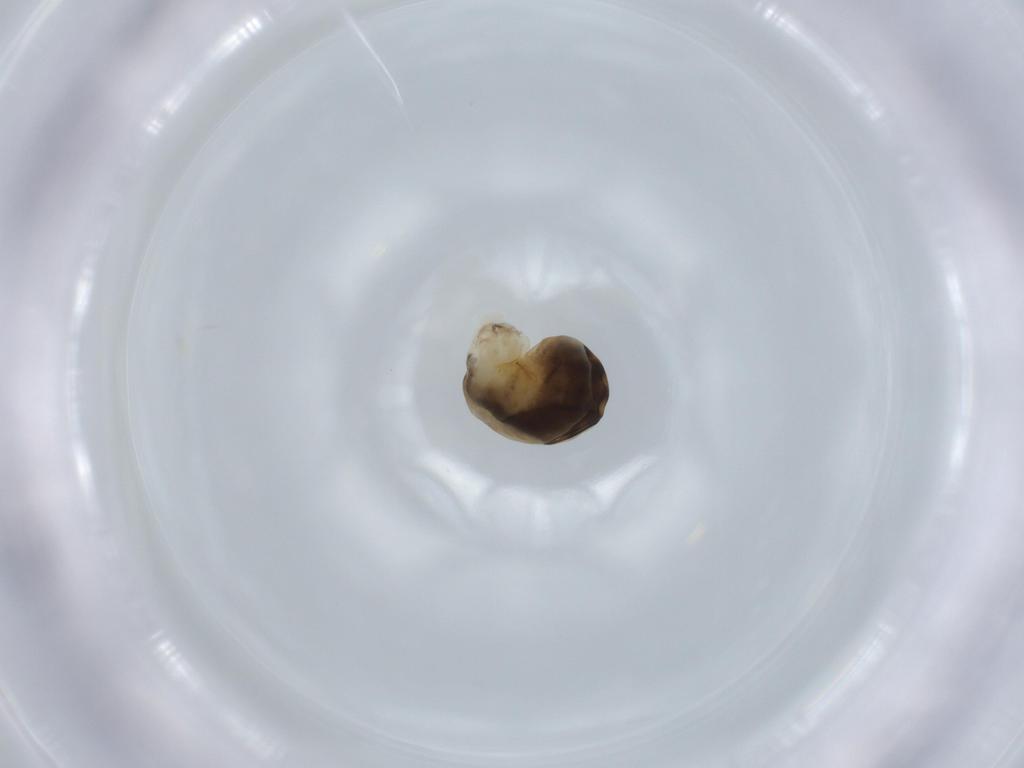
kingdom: Animalia
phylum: Arthropoda
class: Insecta
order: Hymenoptera
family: Dryinidae
